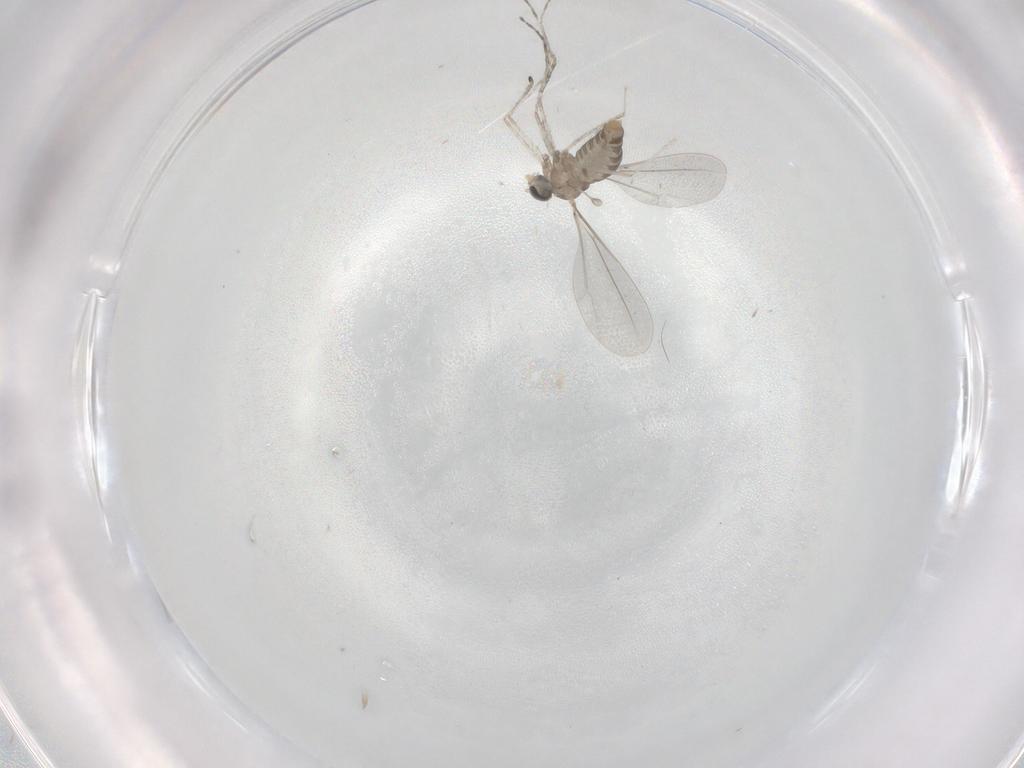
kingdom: Animalia
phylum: Arthropoda
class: Insecta
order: Diptera
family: Cecidomyiidae
